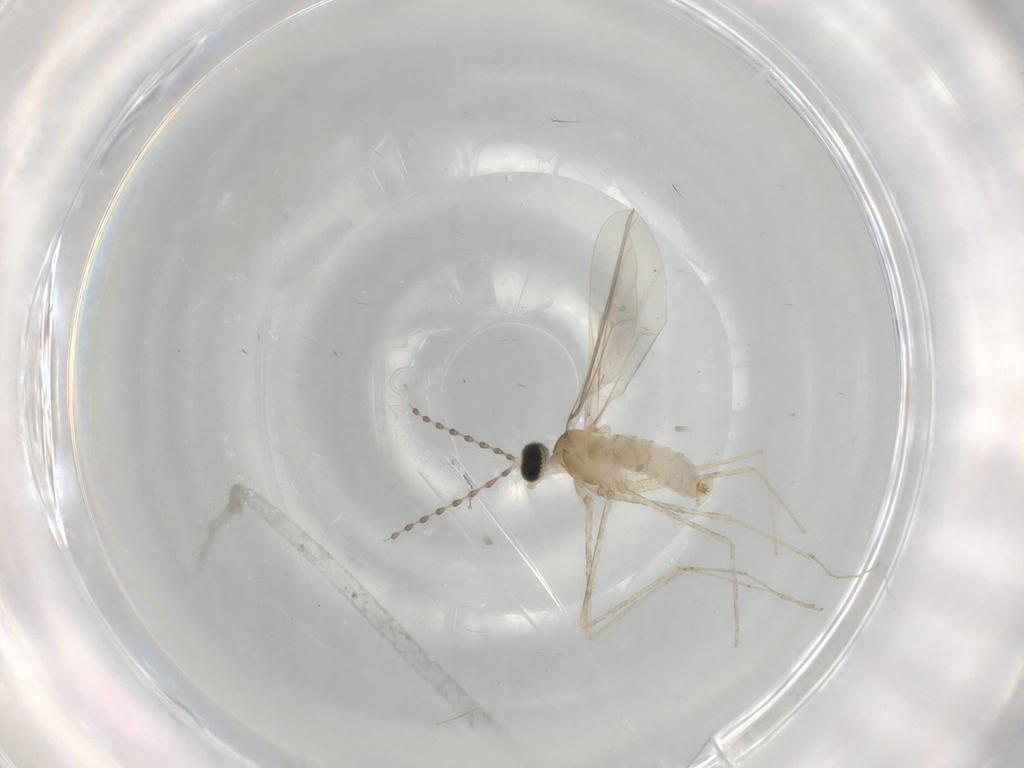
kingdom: Animalia
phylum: Arthropoda
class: Insecta
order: Diptera
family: Cecidomyiidae
